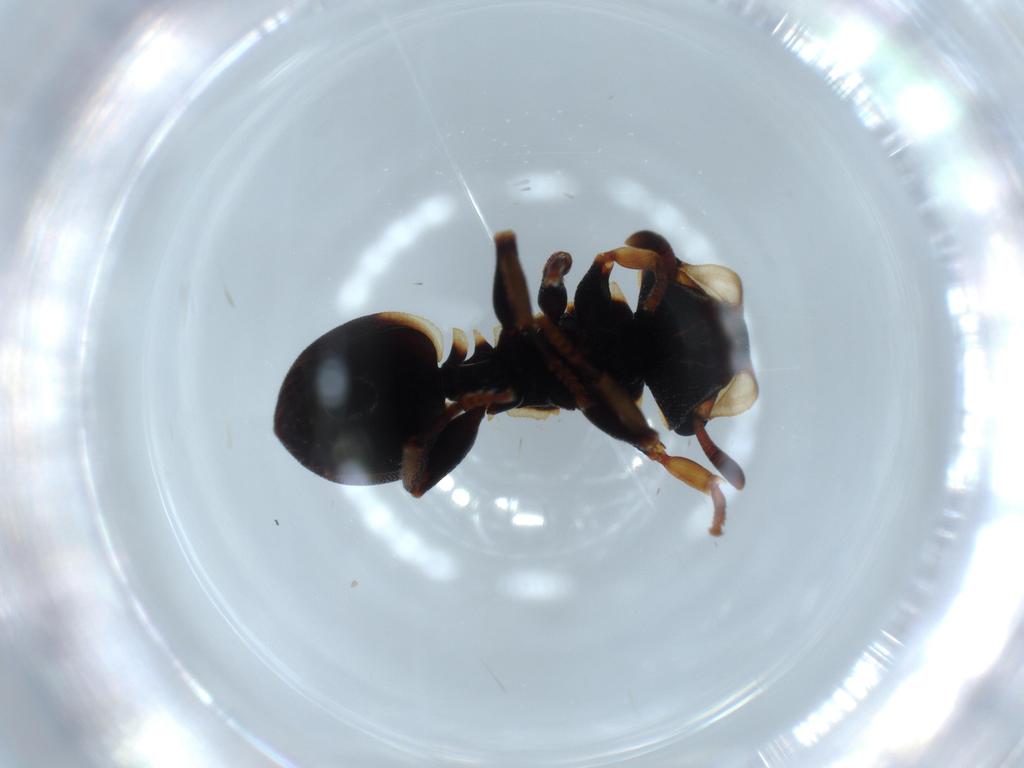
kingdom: Animalia
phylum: Arthropoda
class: Insecta
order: Hymenoptera
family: Formicidae
